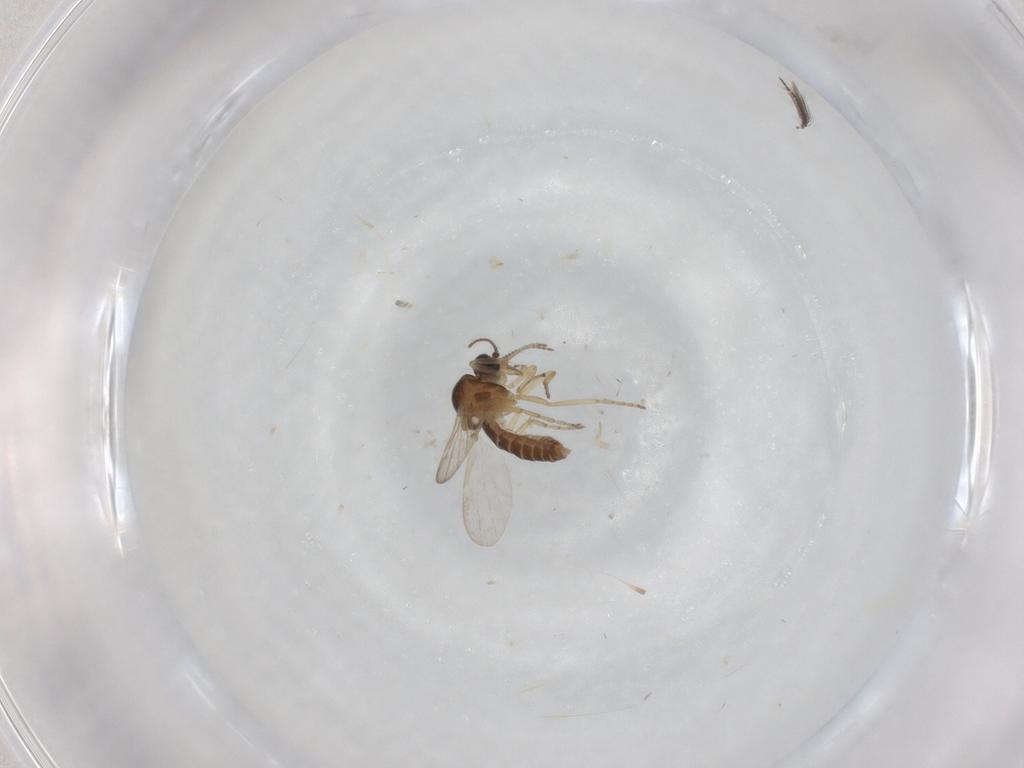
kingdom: Animalia
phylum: Arthropoda
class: Insecta
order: Diptera
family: Ceratopogonidae
